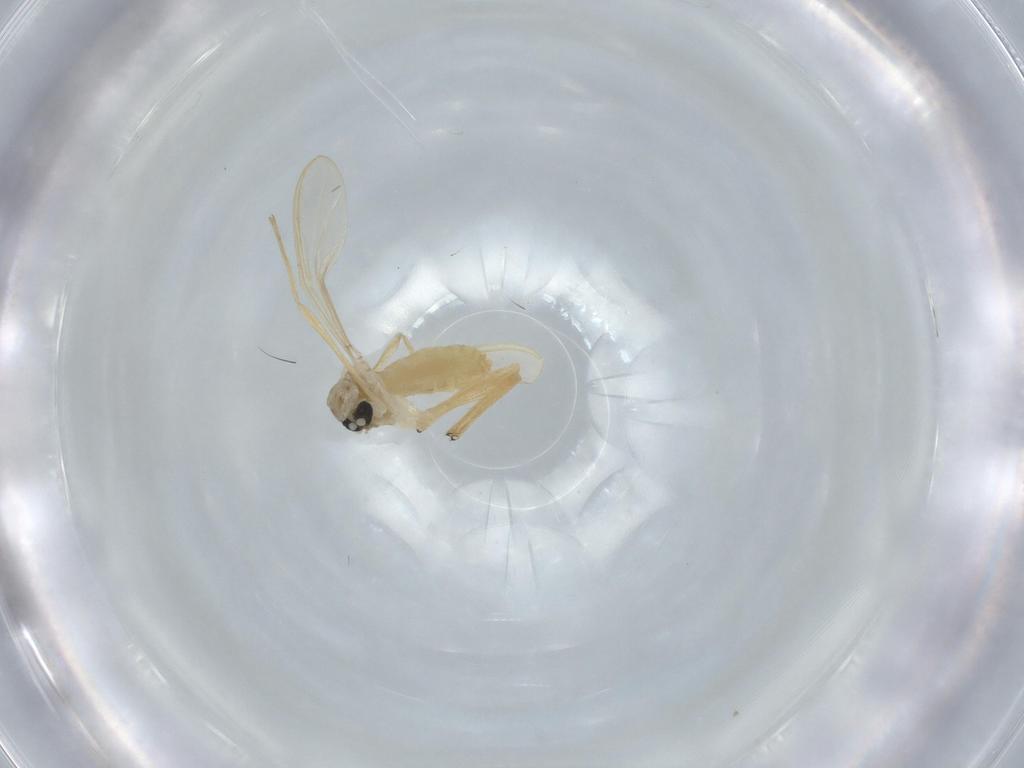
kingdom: Animalia
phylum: Arthropoda
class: Insecta
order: Diptera
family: Chironomidae
